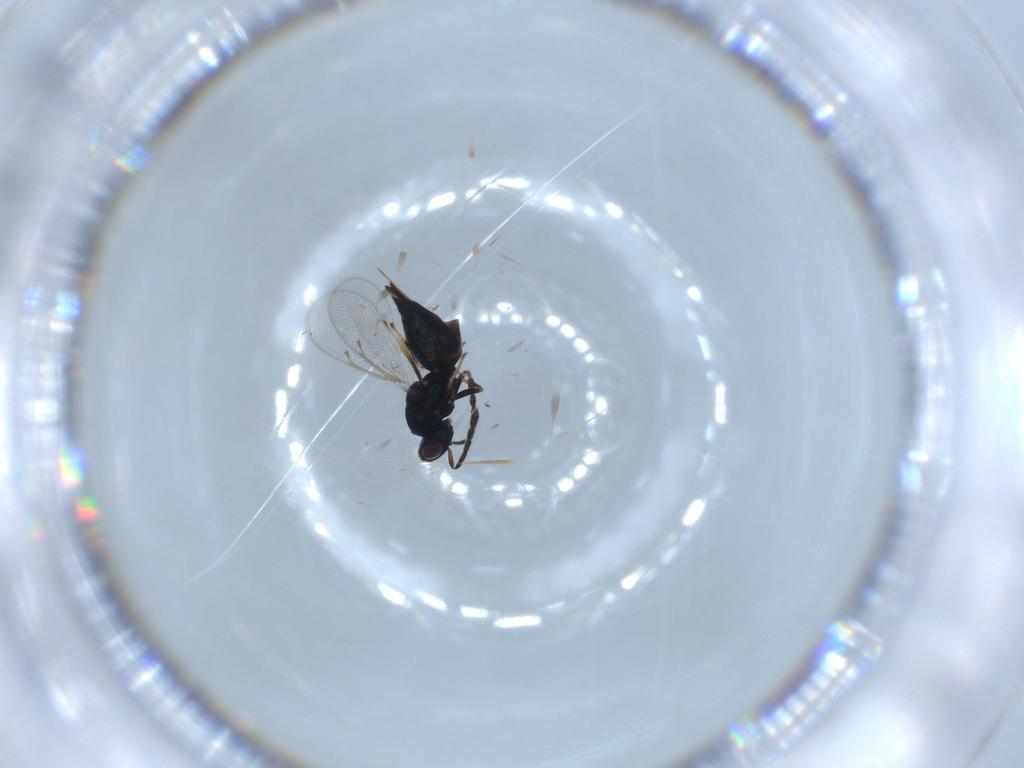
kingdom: Animalia
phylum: Arthropoda
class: Insecta
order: Hymenoptera
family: Eulophidae
